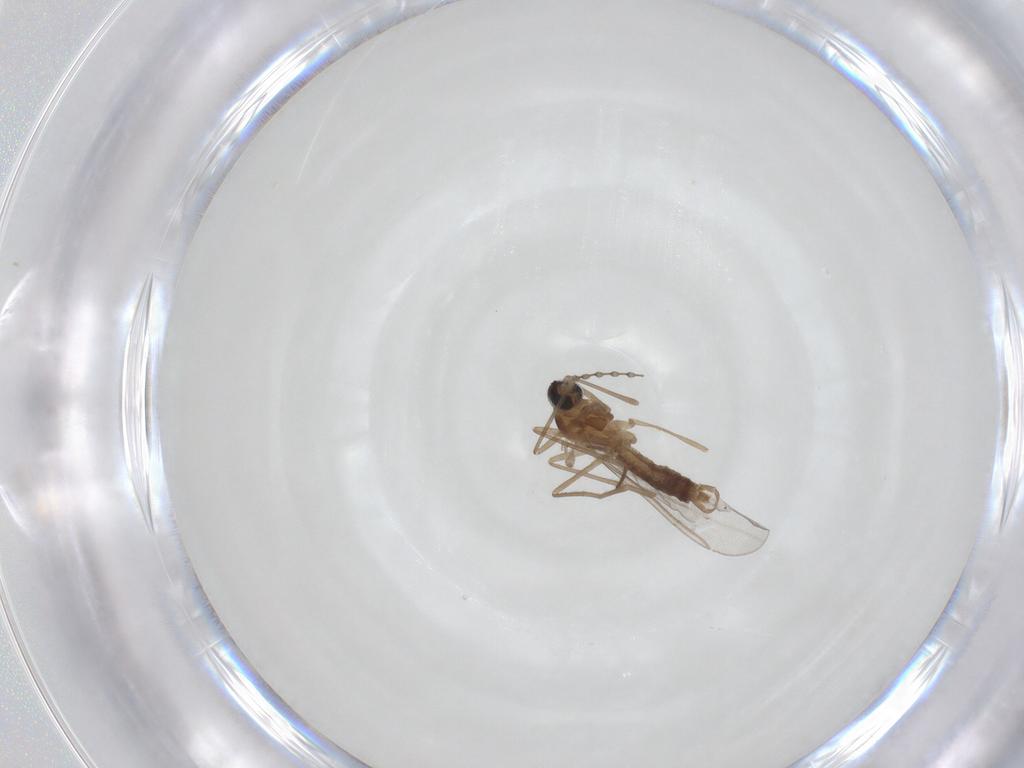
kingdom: Animalia
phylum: Arthropoda
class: Insecta
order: Diptera
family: Cecidomyiidae
